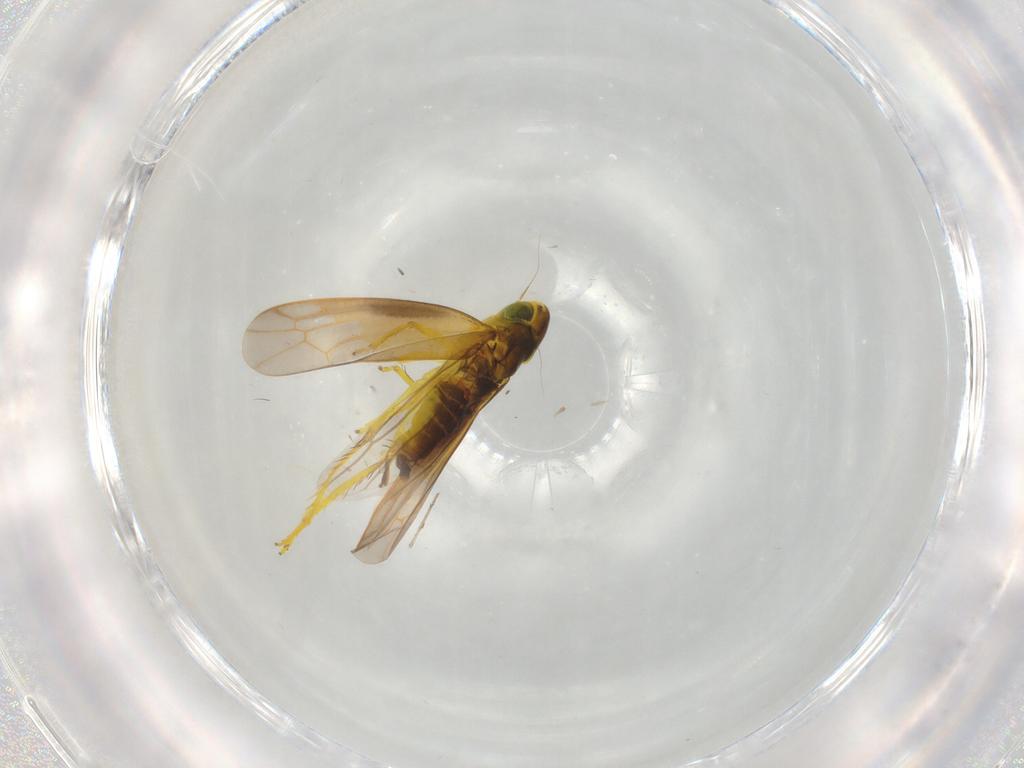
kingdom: Animalia
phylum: Arthropoda
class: Insecta
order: Hemiptera
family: Cicadellidae
